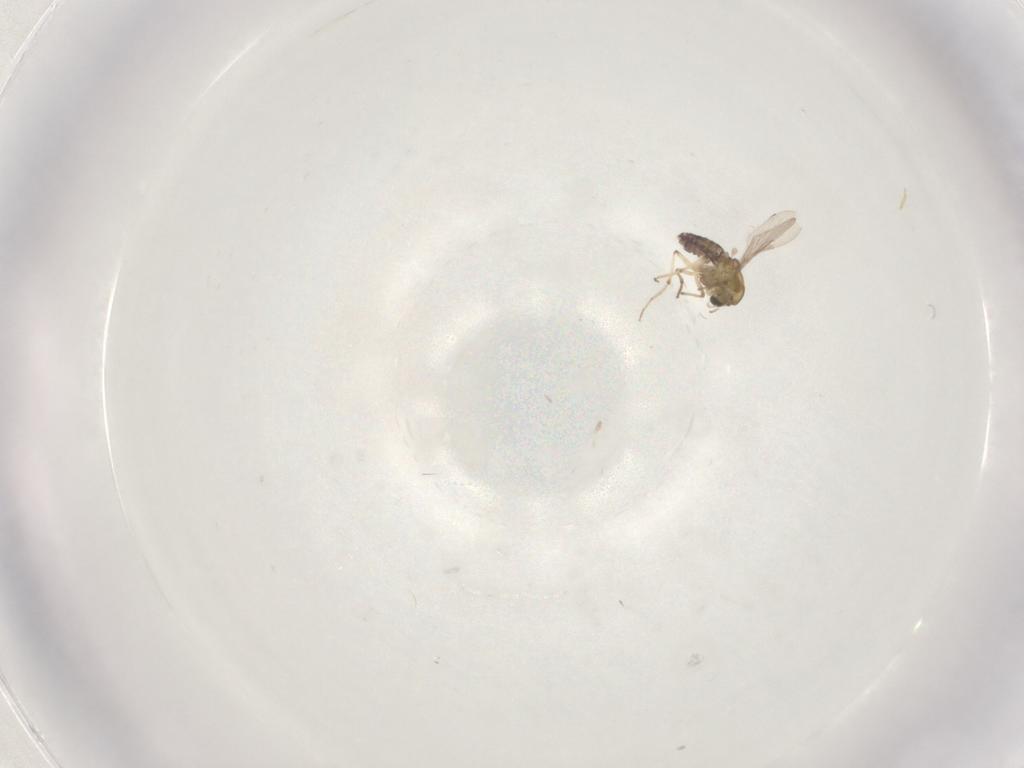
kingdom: Animalia
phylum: Arthropoda
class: Insecta
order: Diptera
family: Chironomidae
